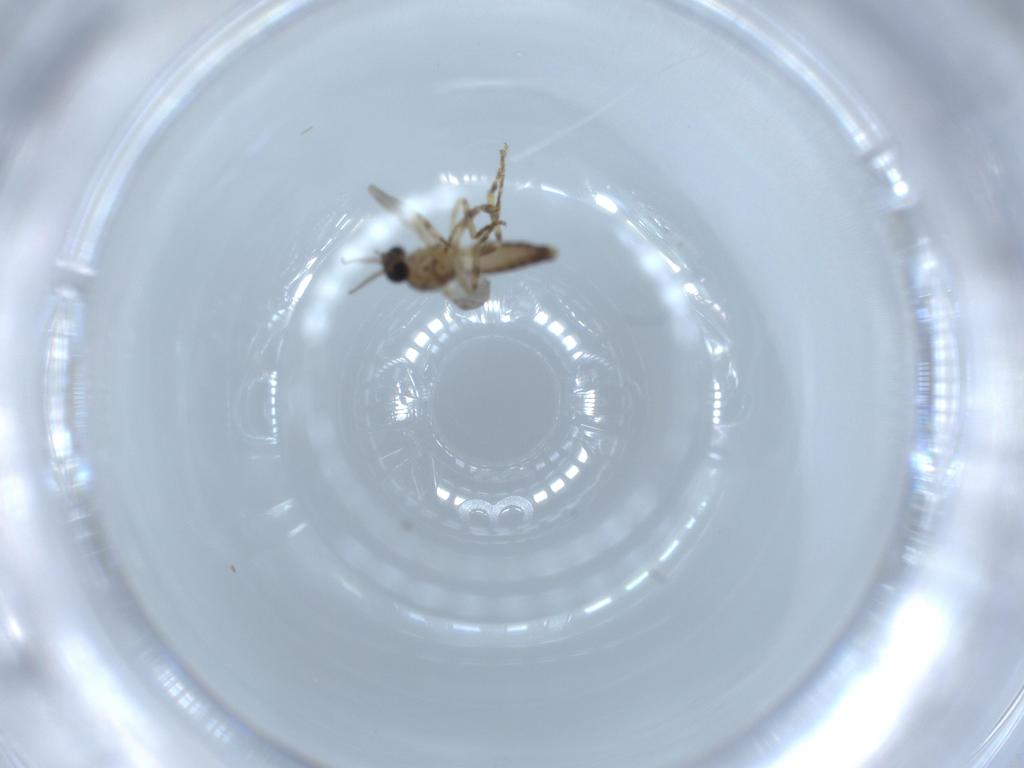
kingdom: Animalia
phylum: Arthropoda
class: Insecta
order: Diptera
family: Ceratopogonidae
